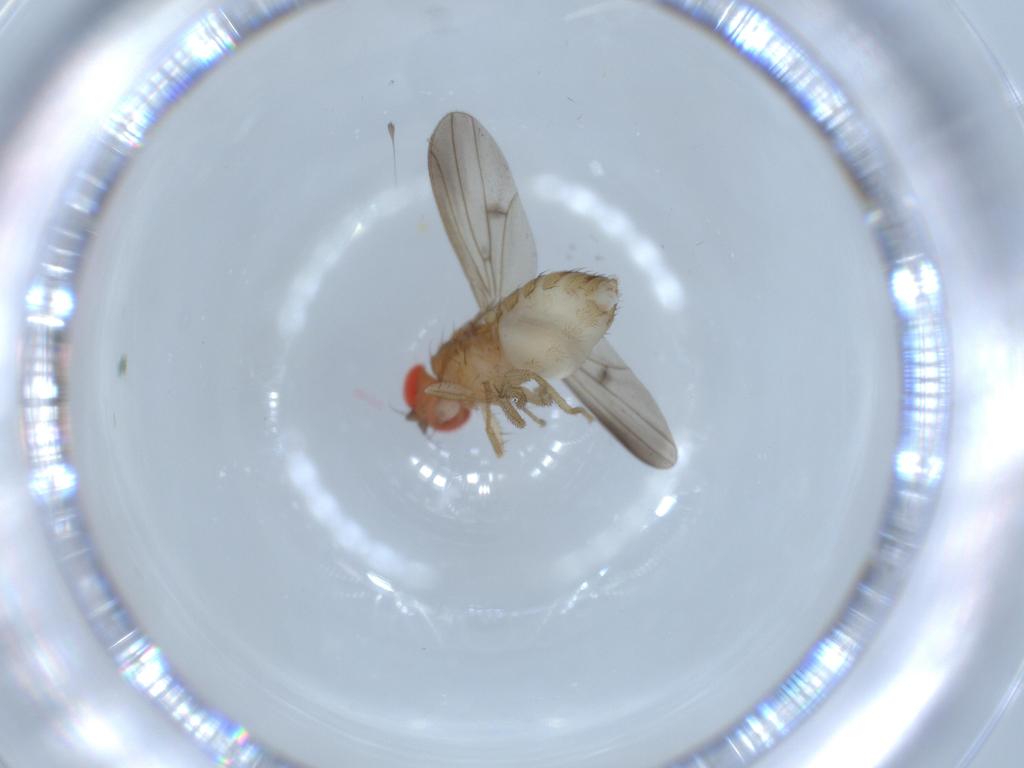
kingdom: Animalia
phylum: Arthropoda
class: Insecta
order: Diptera
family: Drosophilidae
